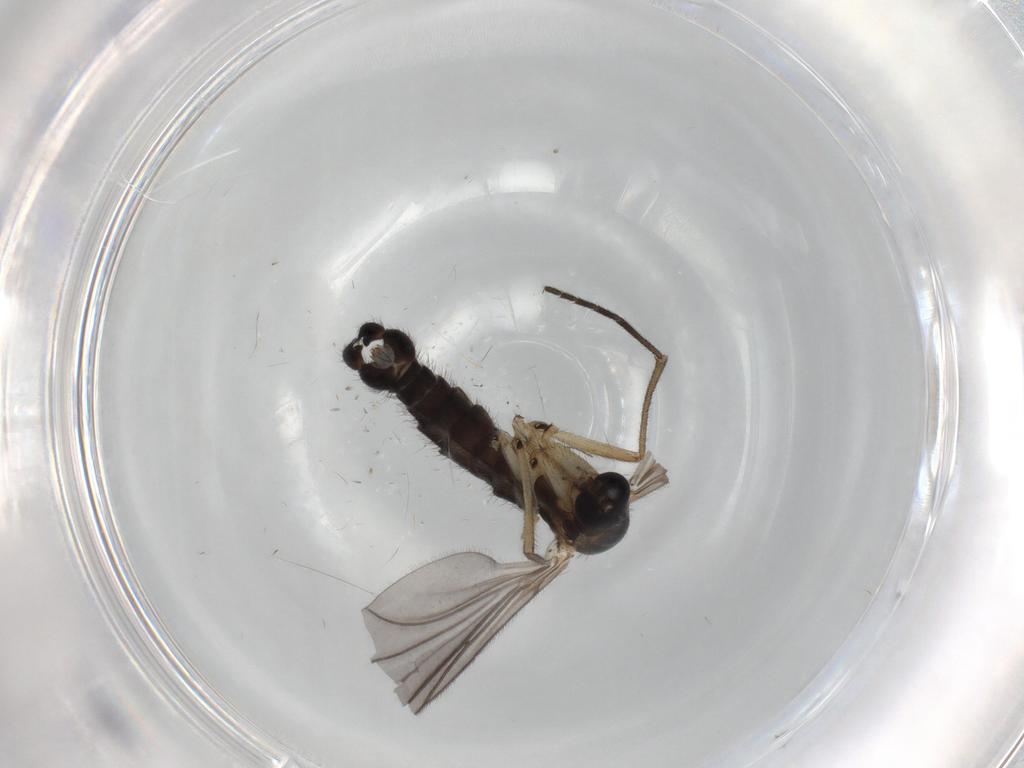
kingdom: Animalia
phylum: Arthropoda
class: Insecta
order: Diptera
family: Sciaridae
